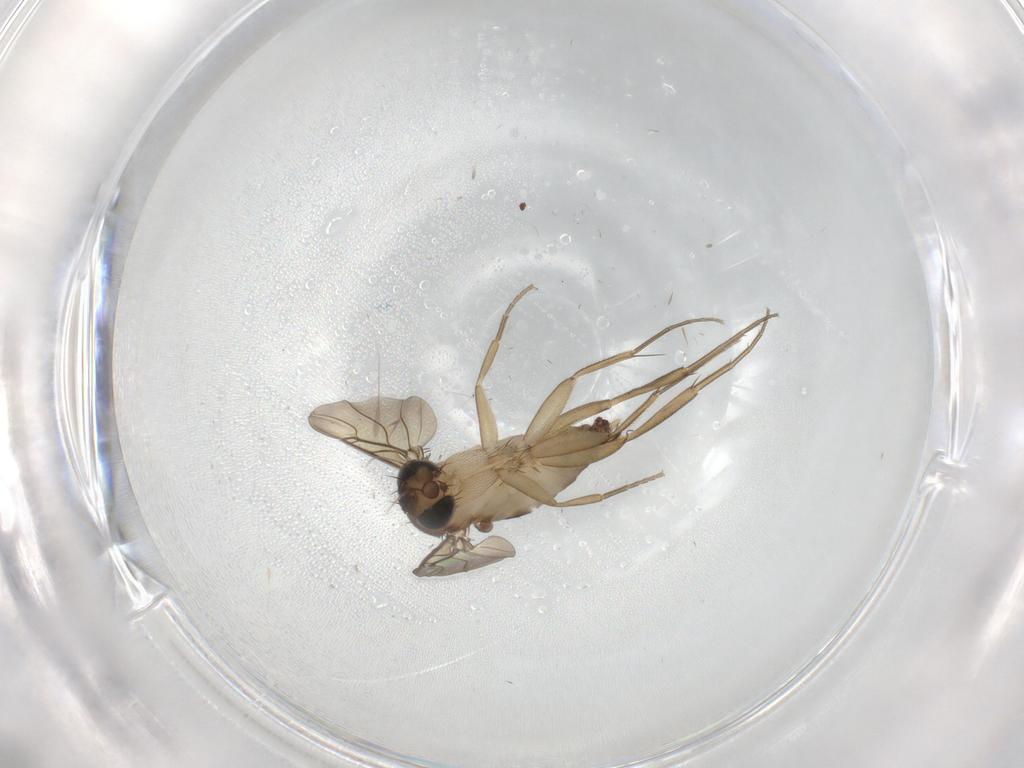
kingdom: Animalia
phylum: Arthropoda
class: Insecta
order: Diptera
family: Phoridae
